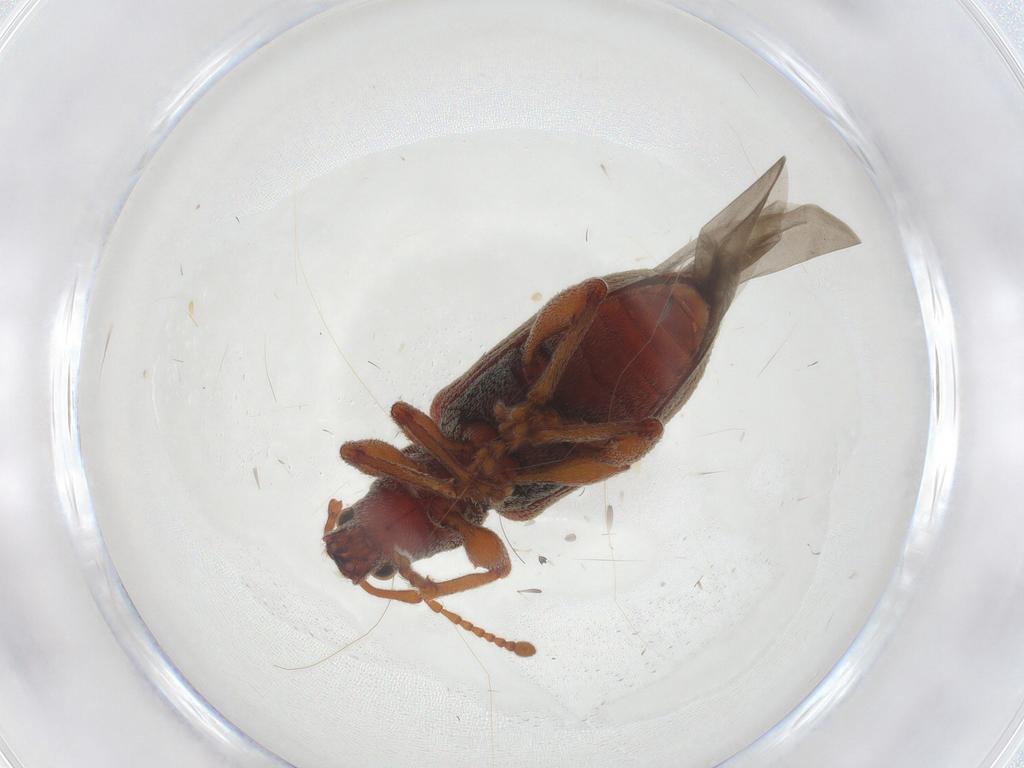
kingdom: Animalia
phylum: Arthropoda
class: Insecta
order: Coleoptera
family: Curculionidae
